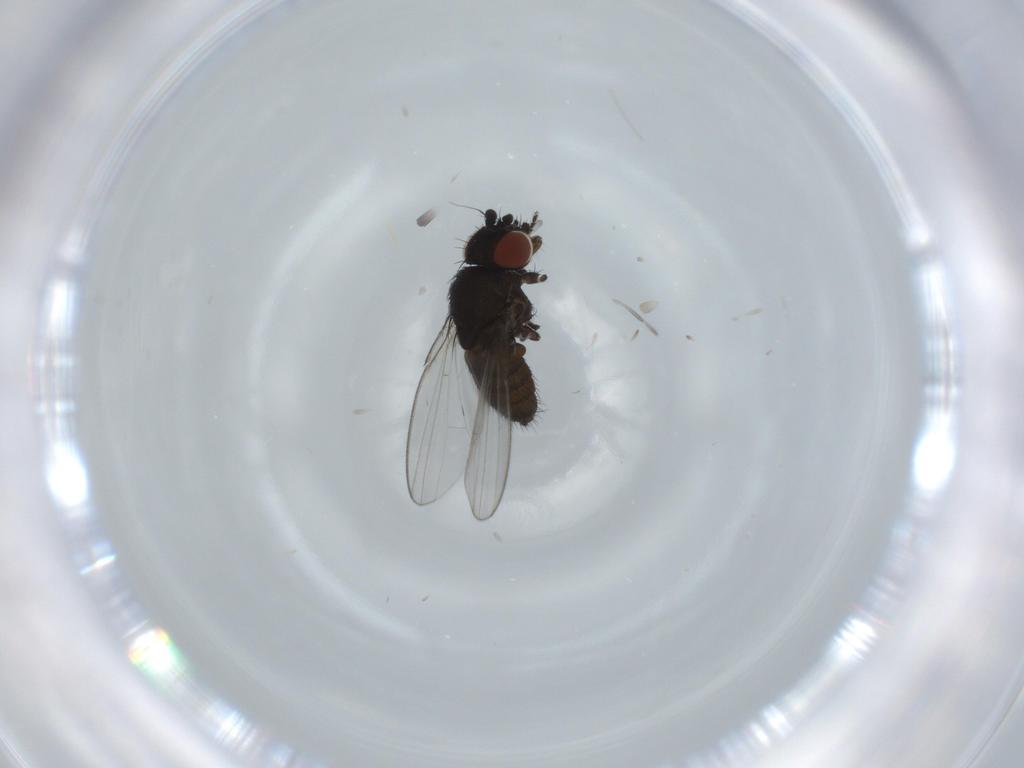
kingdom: Animalia
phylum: Arthropoda
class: Insecta
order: Diptera
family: Milichiidae
